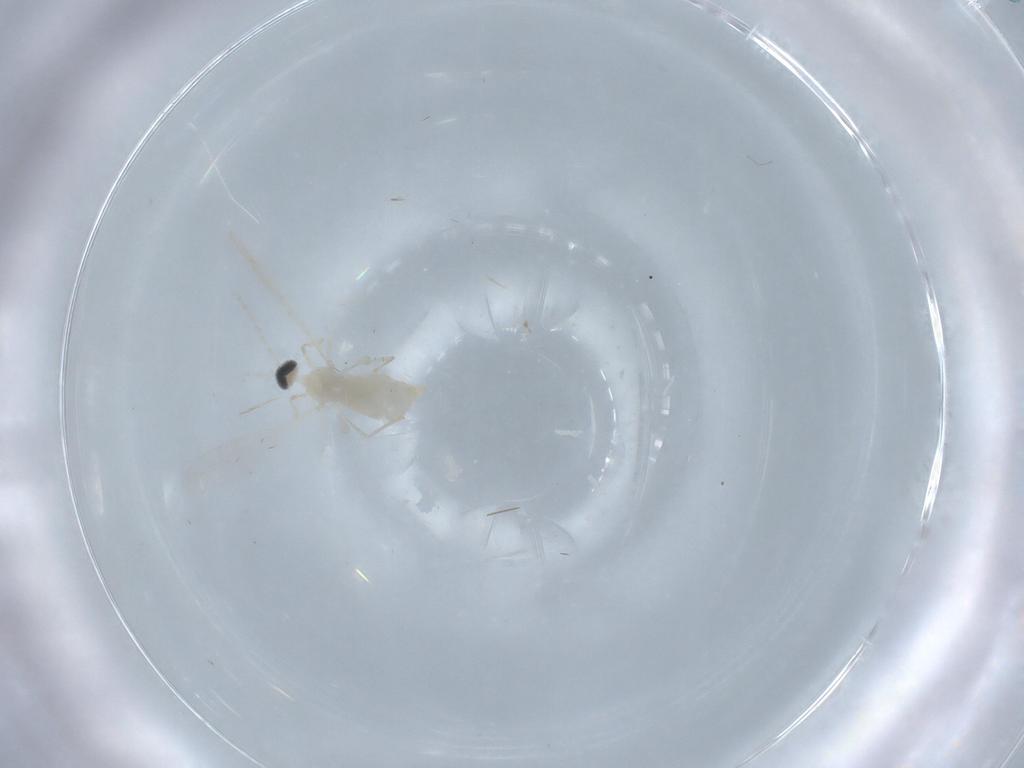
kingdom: Animalia
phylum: Arthropoda
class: Insecta
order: Diptera
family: Cecidomyiidae
